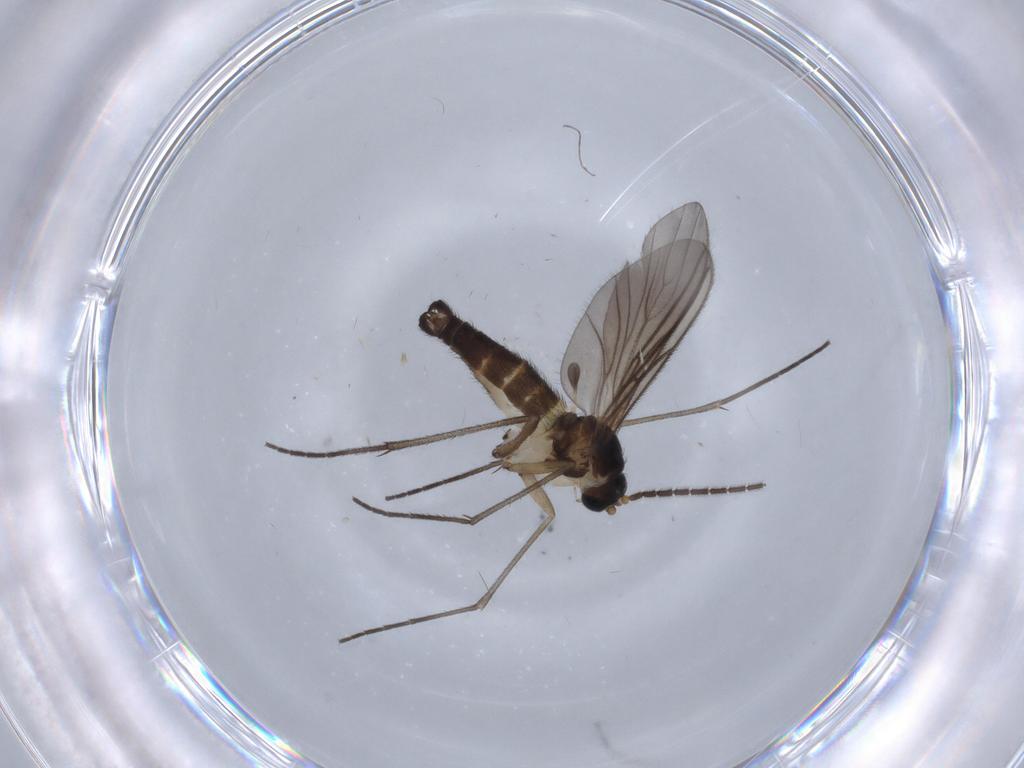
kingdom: Animalia
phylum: Arthropoda
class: Insecta
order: Diptera
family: Sciaridae
